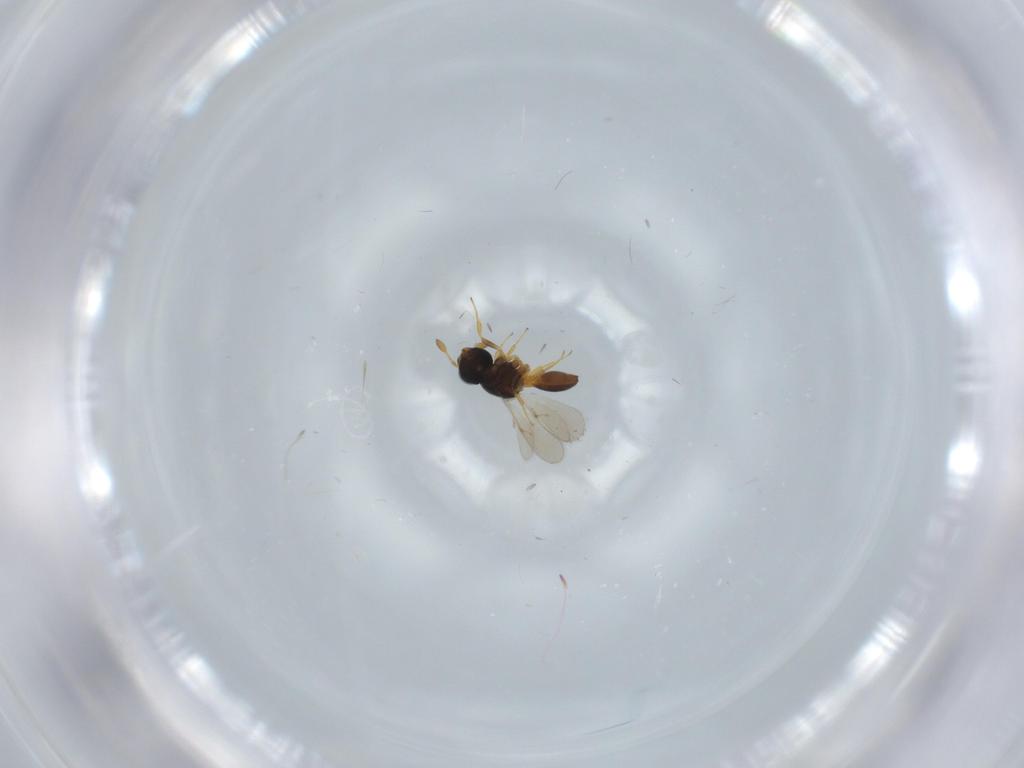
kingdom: Animalia
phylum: Arthropoda
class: Insecta
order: Hymenoptera
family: Scelionidae
